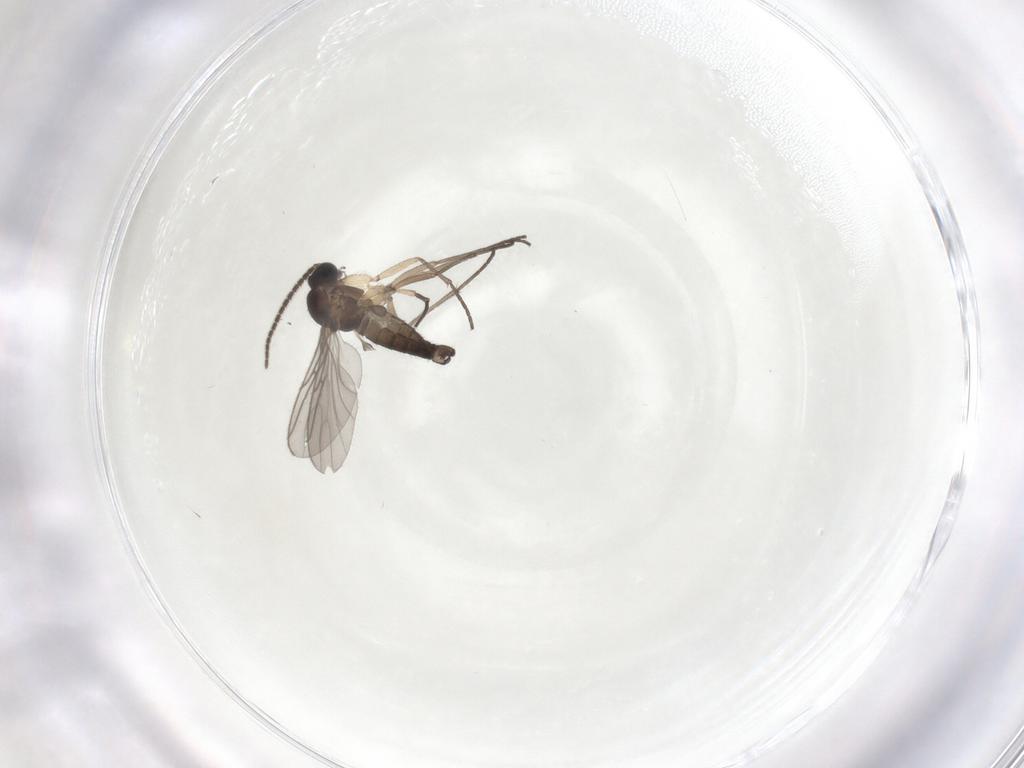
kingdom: Animalia
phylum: Arthropoda
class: Insecta
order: Diptera
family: Sciaridae
